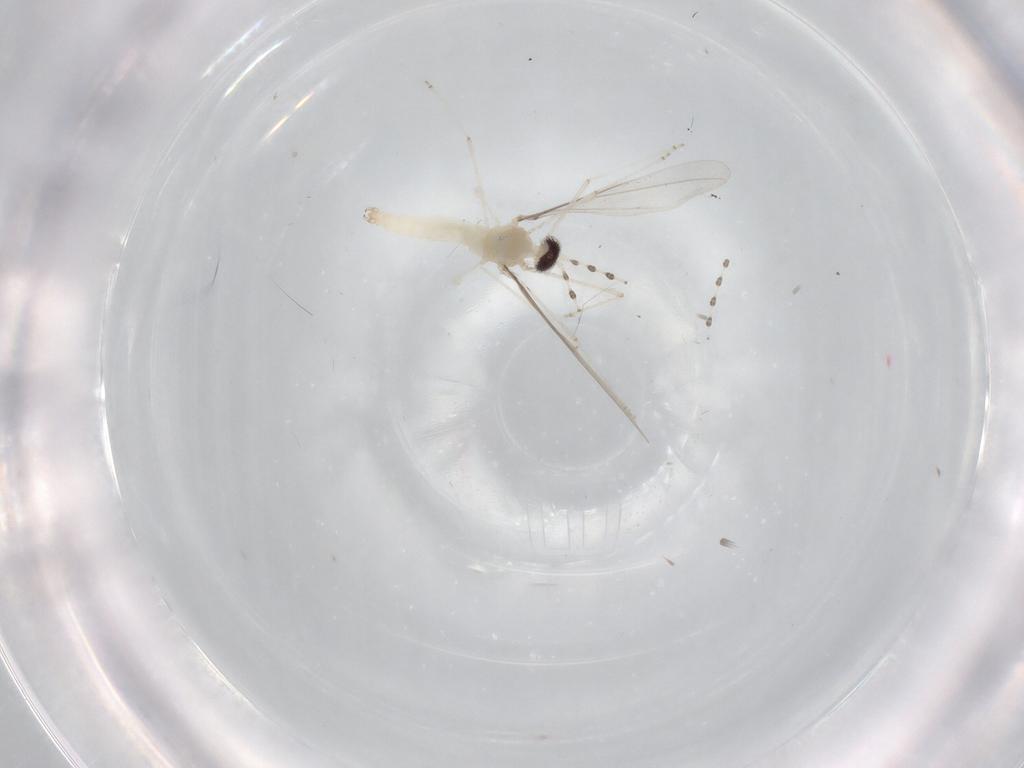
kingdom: Animalia
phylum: Arthropoda
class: Insecta
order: Diptera
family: Cecidomyiidae
